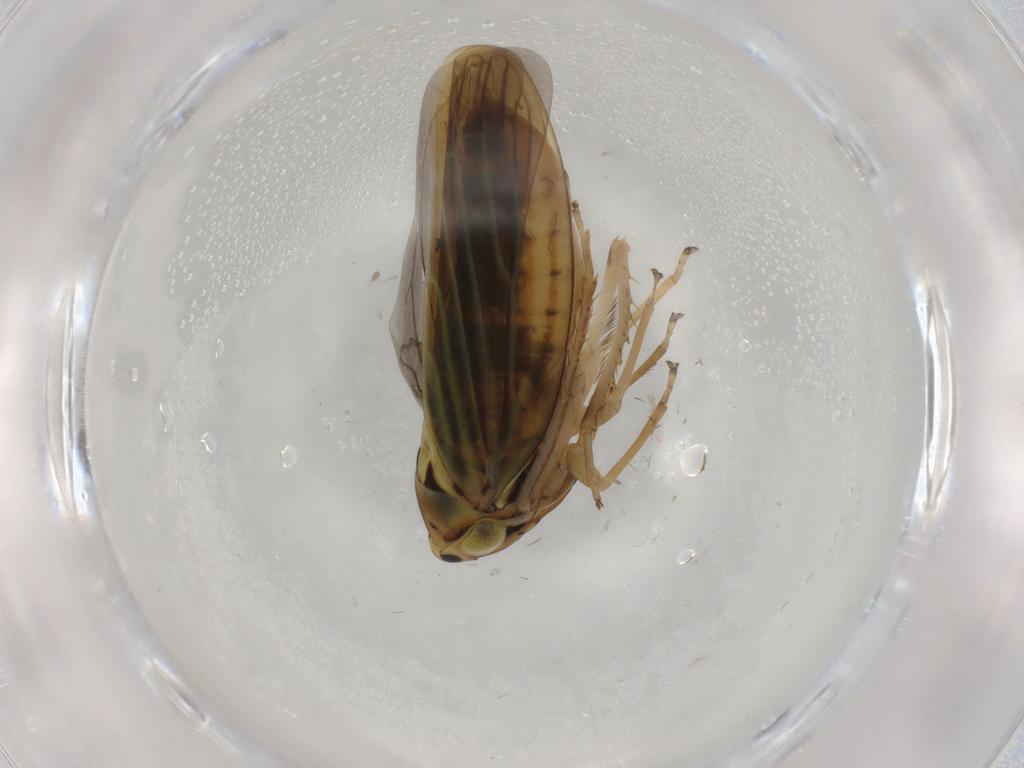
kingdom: Animalia
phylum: Arthropoda
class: Insecta
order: Hemiptera
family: Cicadellidae
